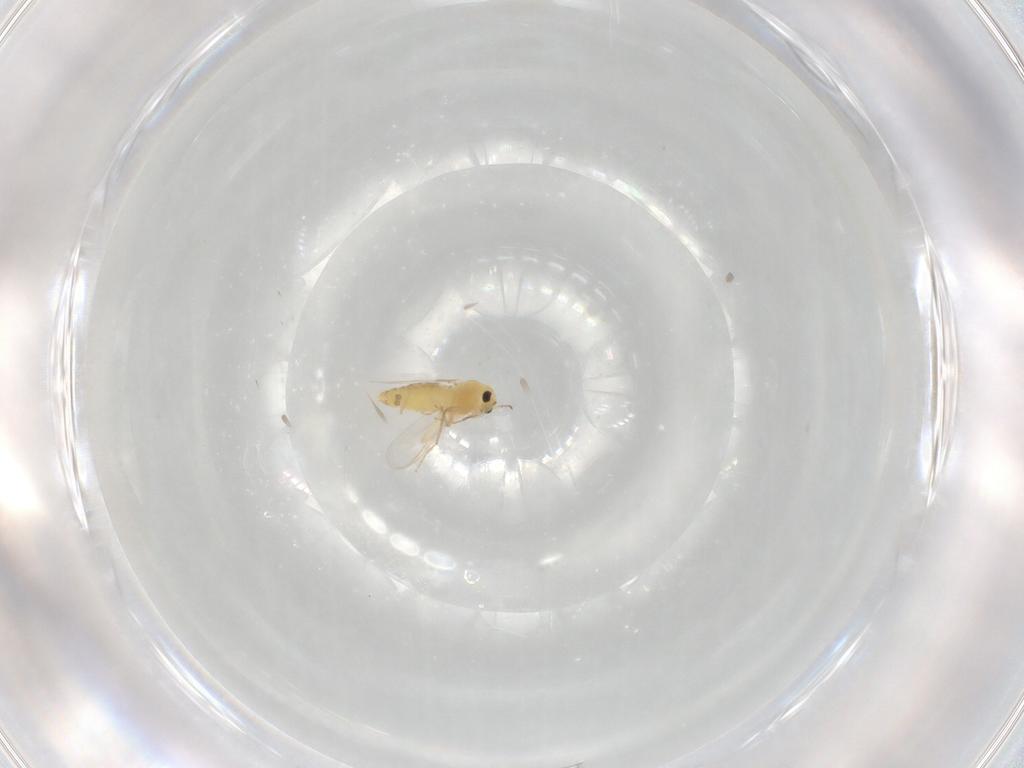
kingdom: Animalia
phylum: Arthropoda
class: Insecta
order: Diptera
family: Chironomidae
